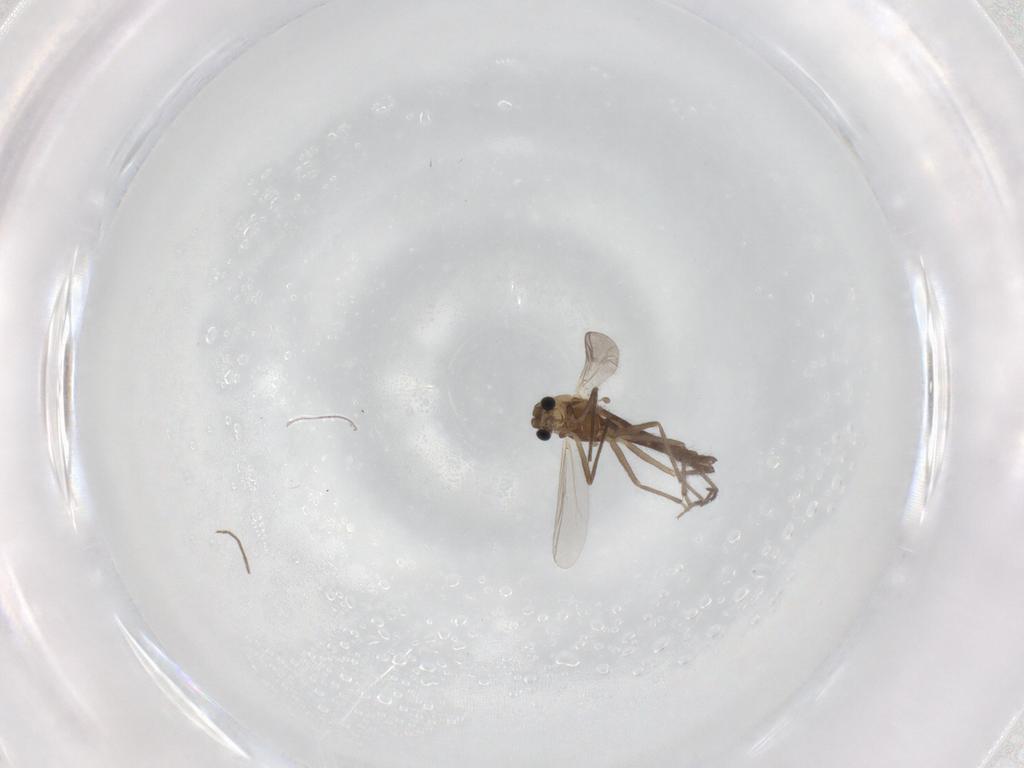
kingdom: Animalia
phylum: Arthropoda
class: Insecta
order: Diptera
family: Chironomidae
